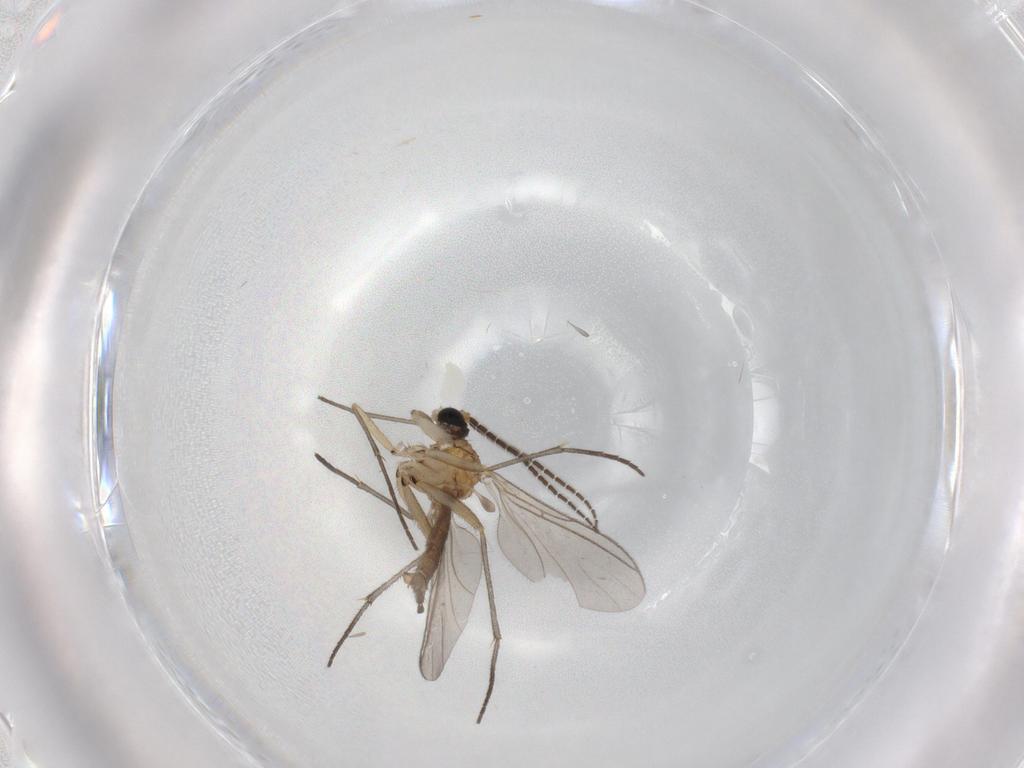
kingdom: Animalia
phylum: Arthropoda
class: Insecta
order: Diptera
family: Sciaridae
